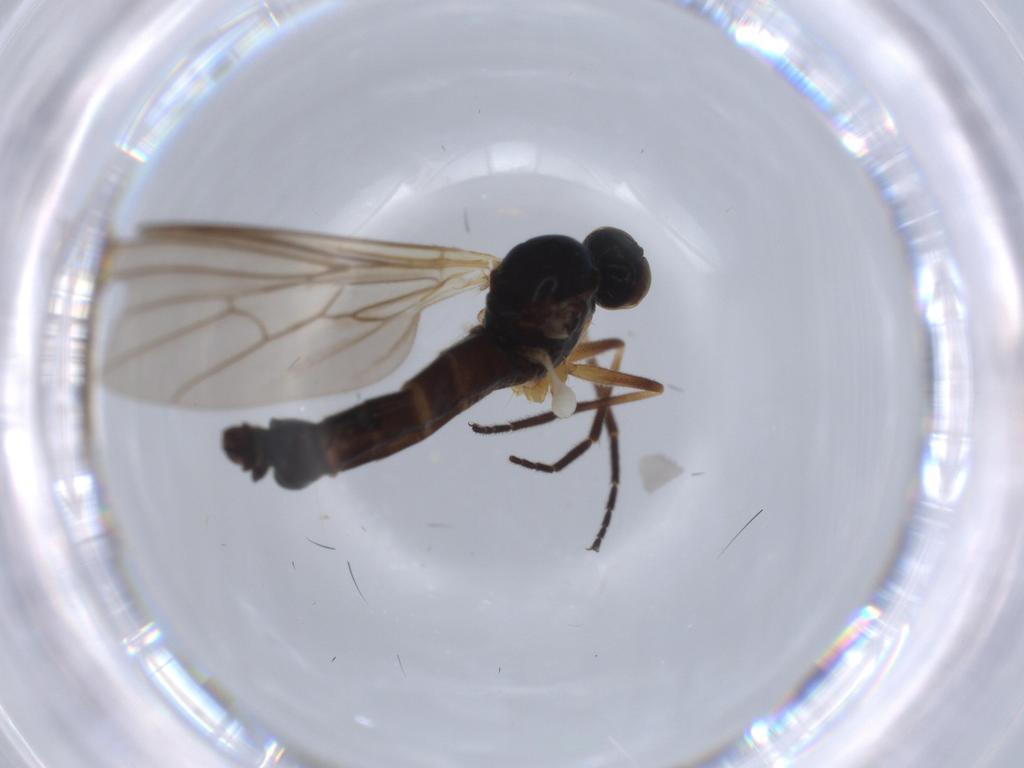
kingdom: Animalia
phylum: Arthropoda
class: Insecta
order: Diptera
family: Empididae
